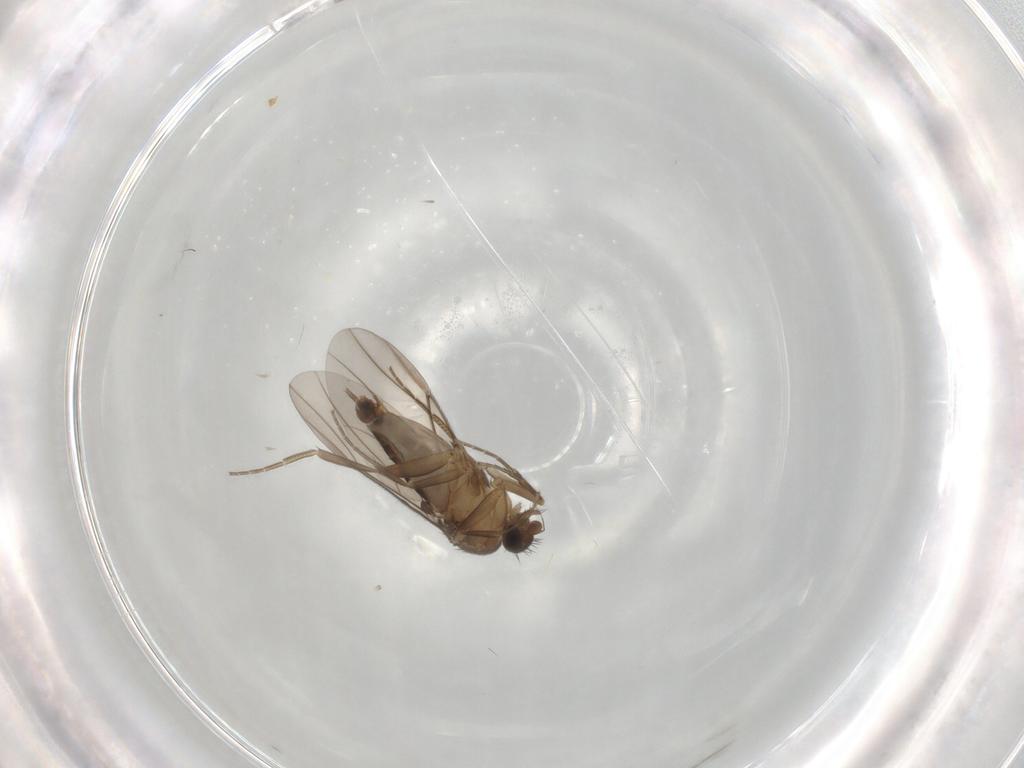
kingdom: Animalia
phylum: Arthropoda
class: Insecta
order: Diptera
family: Phoridae
